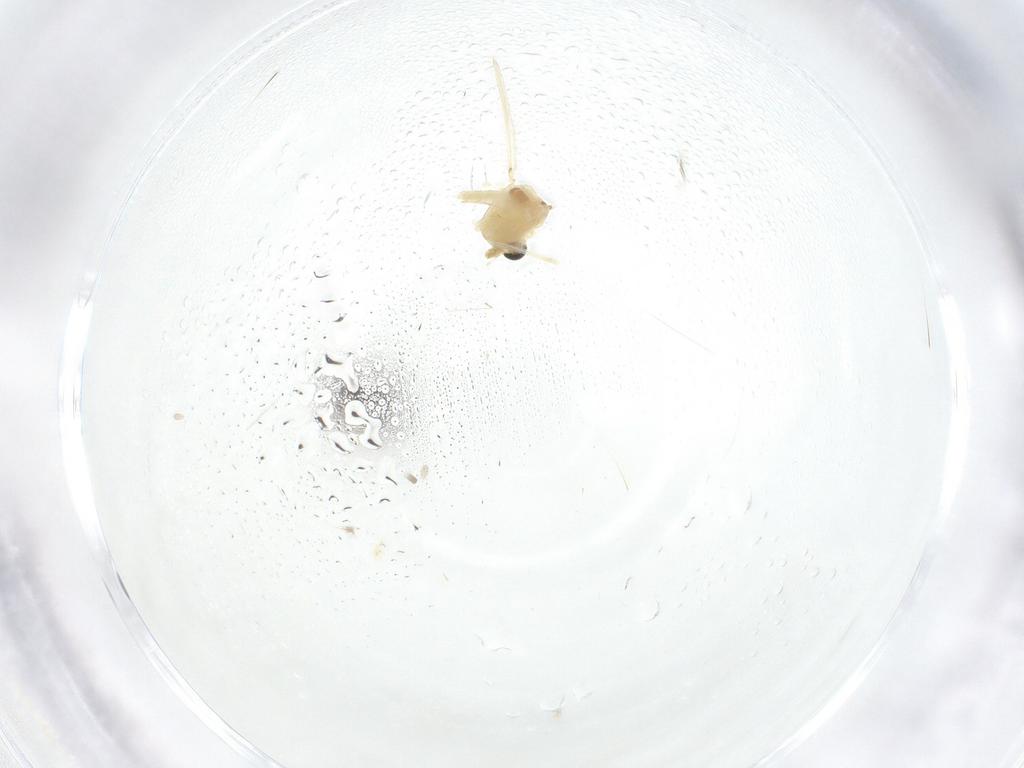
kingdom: Animalia
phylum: Arthropoda
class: Insecta
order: Diptera
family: Chironomidae
